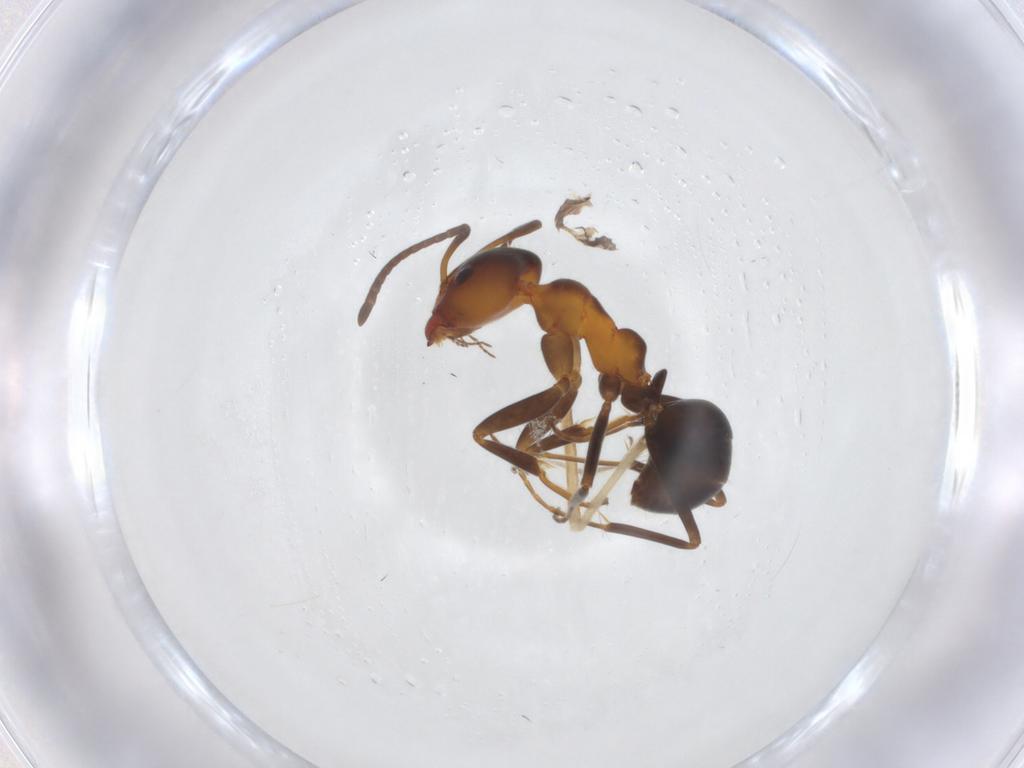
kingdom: Animalia
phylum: Arthropoda
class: Insecta
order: Hymenoptera
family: Formicidae
